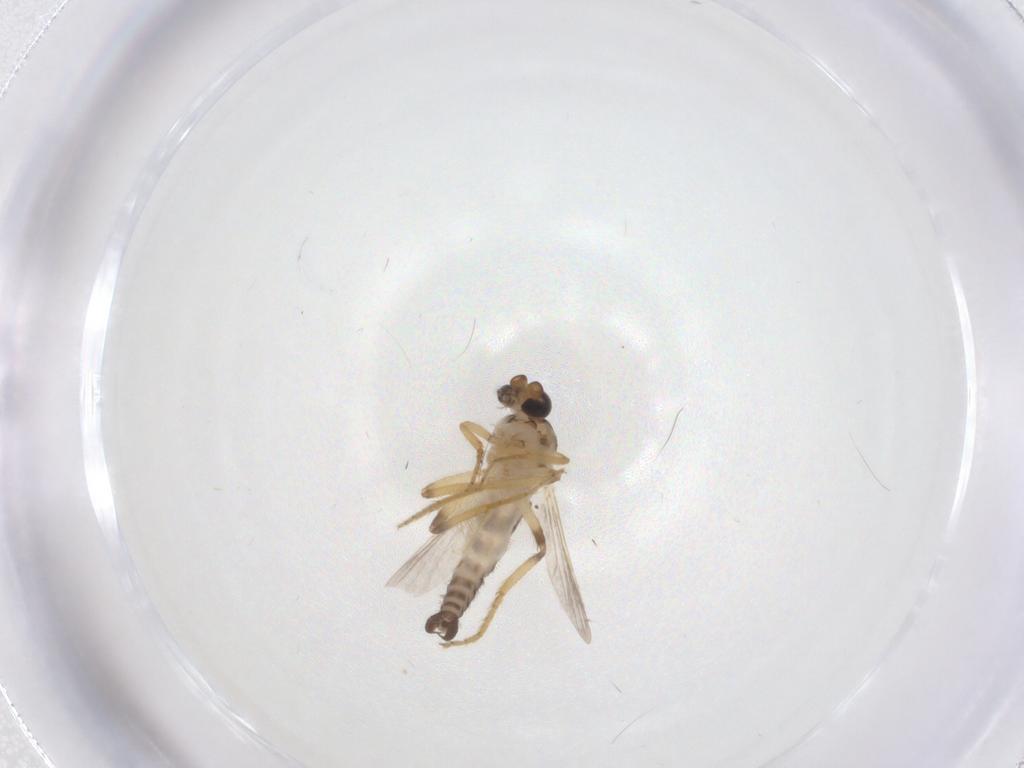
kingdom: Animalia
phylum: Arthropoda
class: Insecta
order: Diptera
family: Ceratopogonidae
